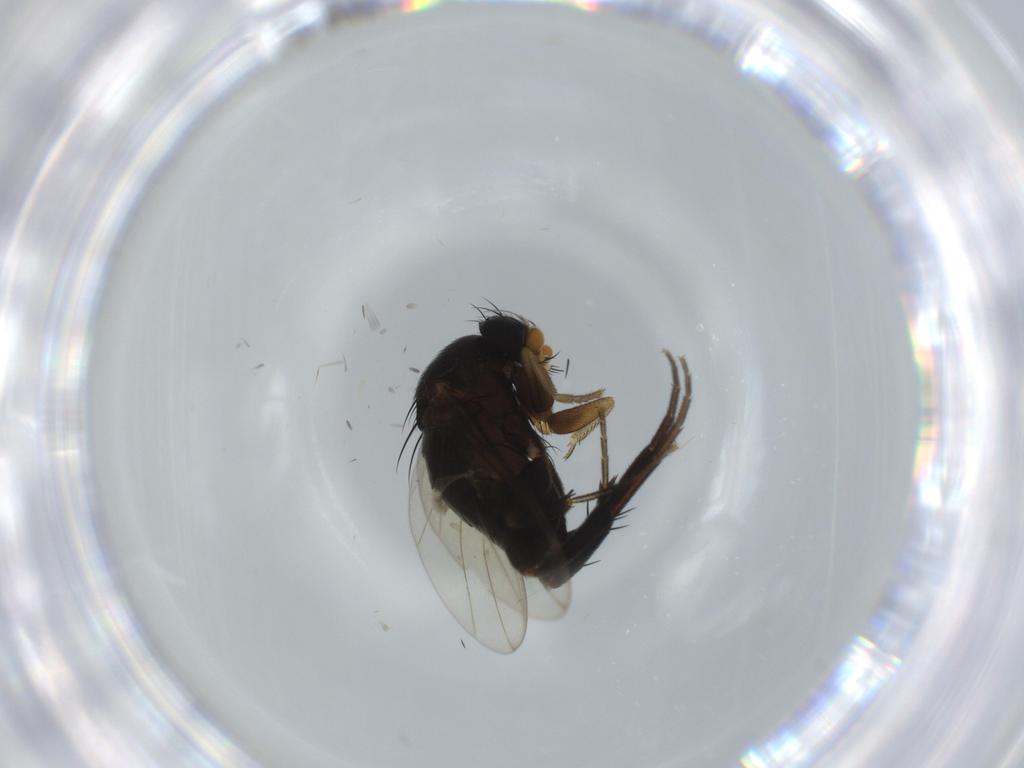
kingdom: Animalia
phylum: Arthropoda
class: Insecta
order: Diptera
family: Phoridae
